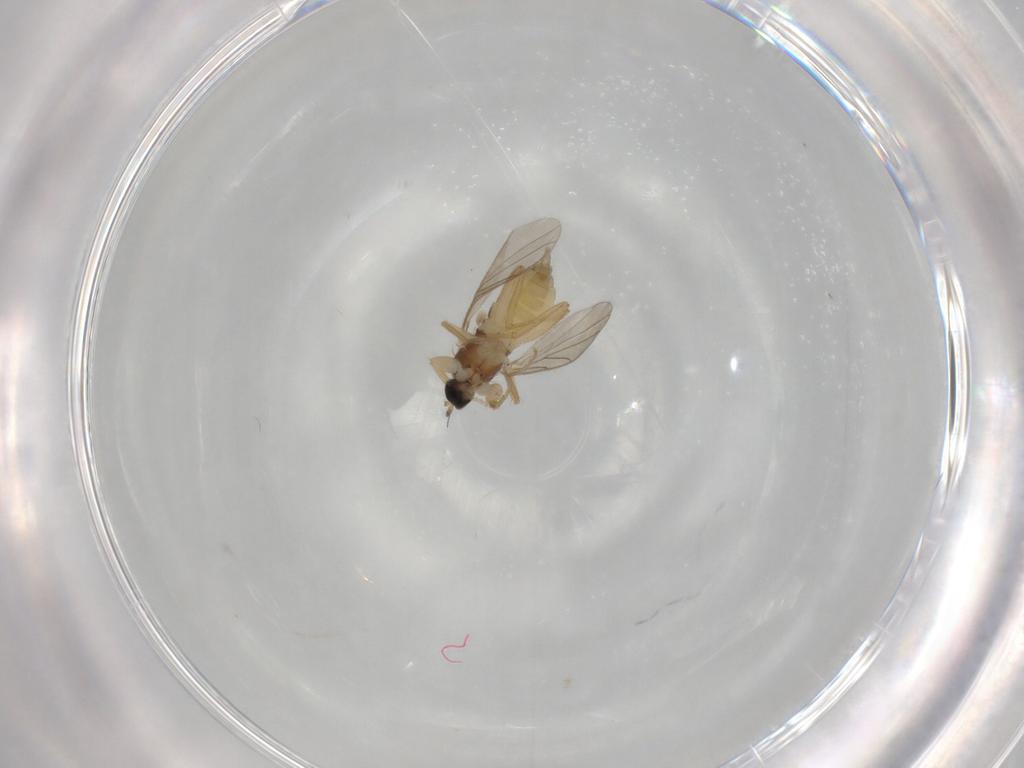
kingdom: Animalia
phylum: Arthropoda
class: Insecta
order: Diptera
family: Hybotidae
